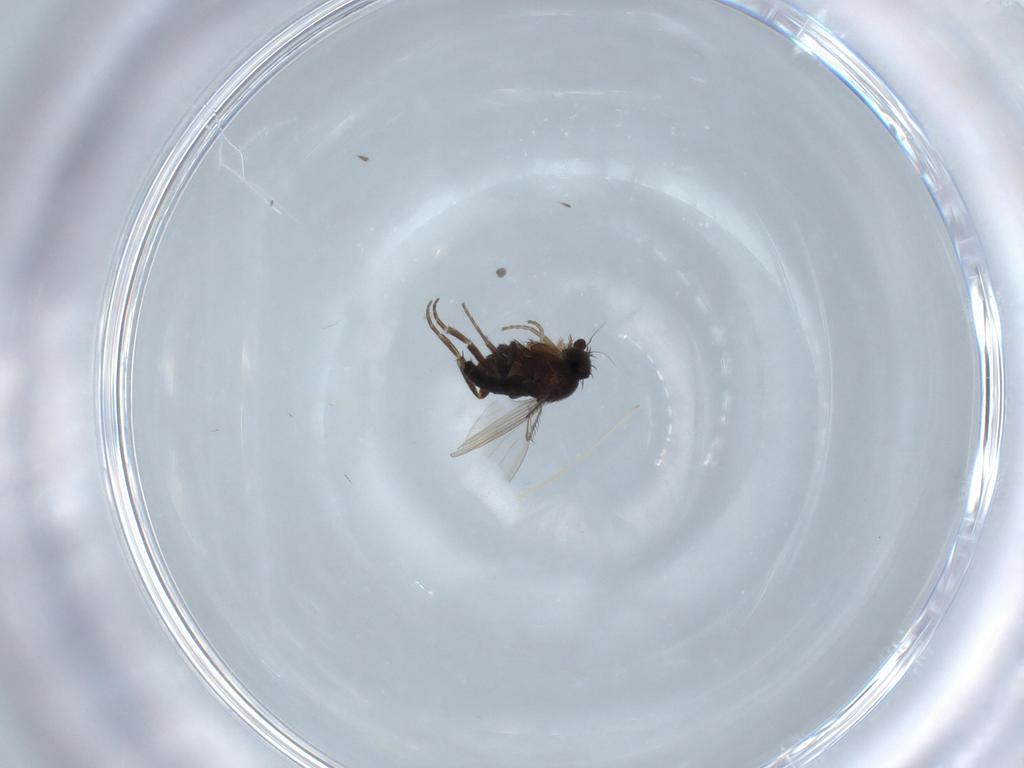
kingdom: Animalia
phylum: Arthropoda
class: Insecta
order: Diptera
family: Phoridae
